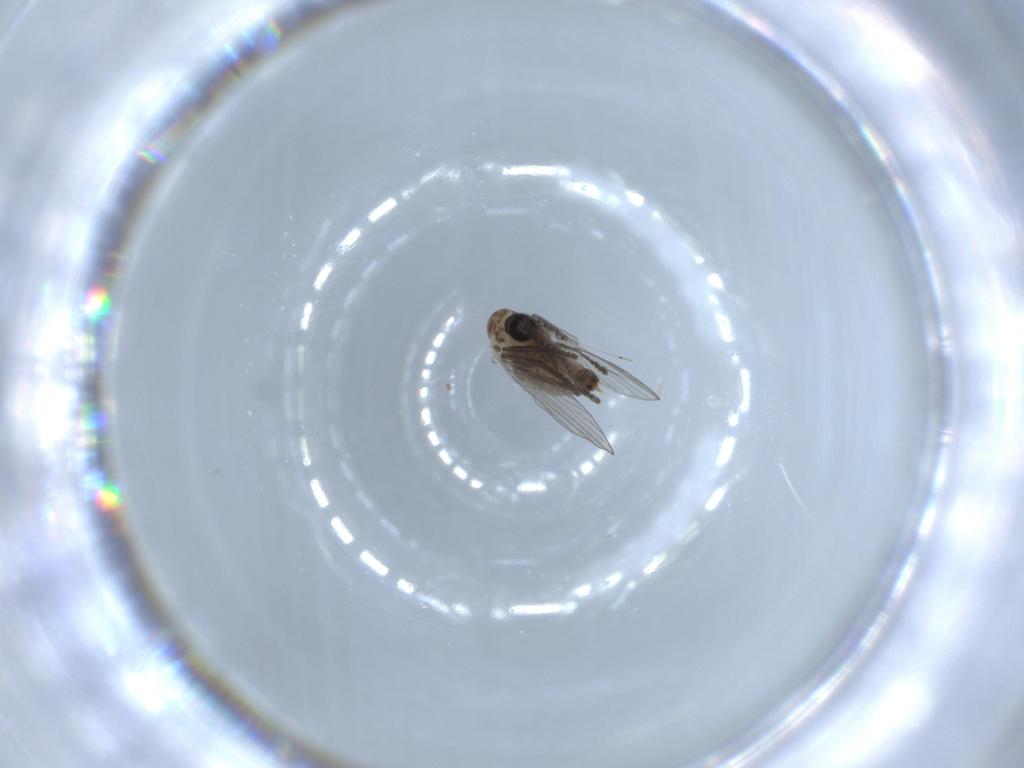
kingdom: Animalia
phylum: Arthropoda
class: Insecta
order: Diptera
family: Psychodidae
